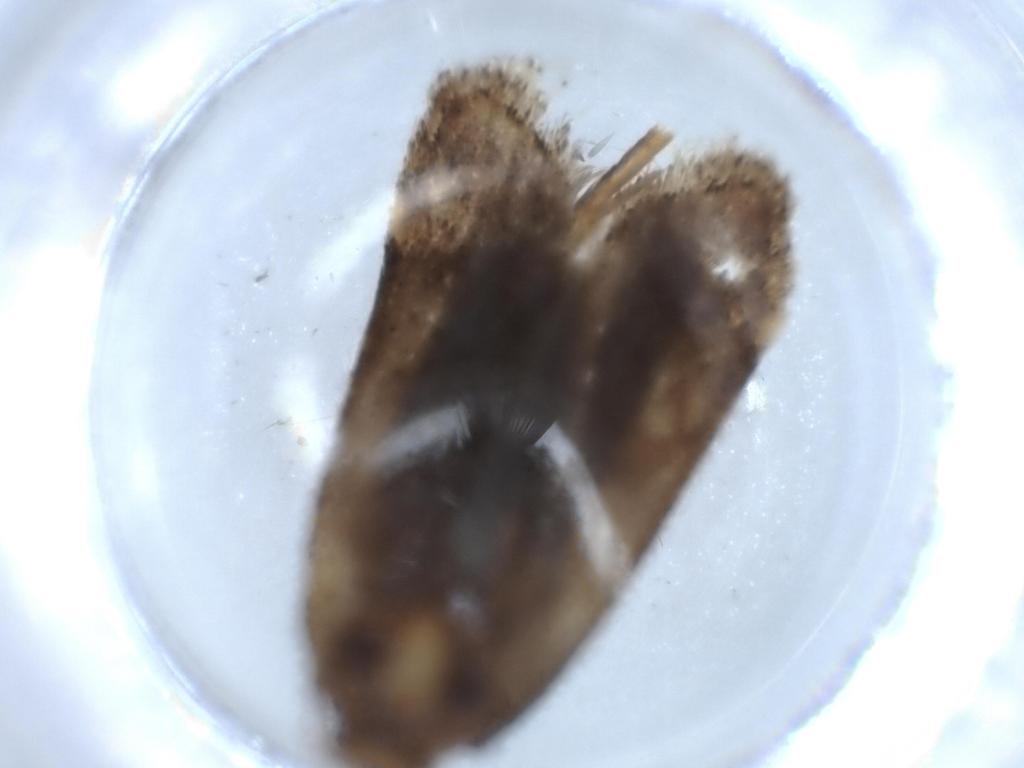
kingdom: Animalia
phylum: Arthropoda
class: Insecta
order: Lepidoptera
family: Gelechiidae
